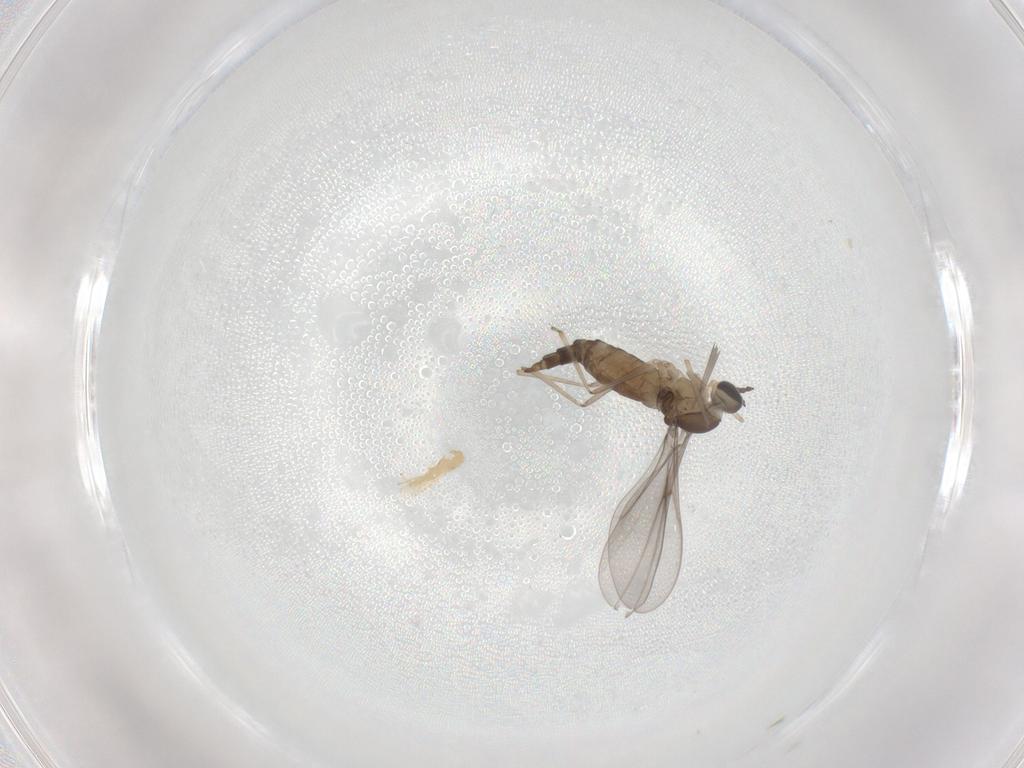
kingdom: Animalia
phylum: Arthropoda
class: Insecta
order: Diptera
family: Cecidomyiidae
